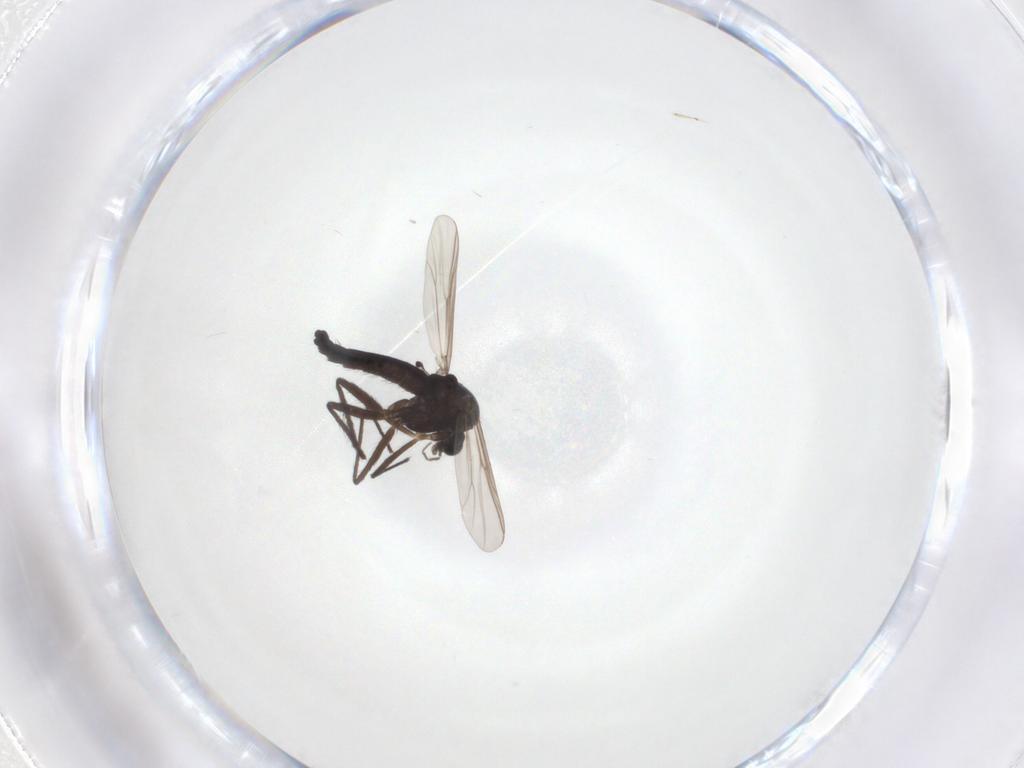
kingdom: Animalia
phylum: Arthropoda
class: Insecta
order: Diptera
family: Chironomidae
